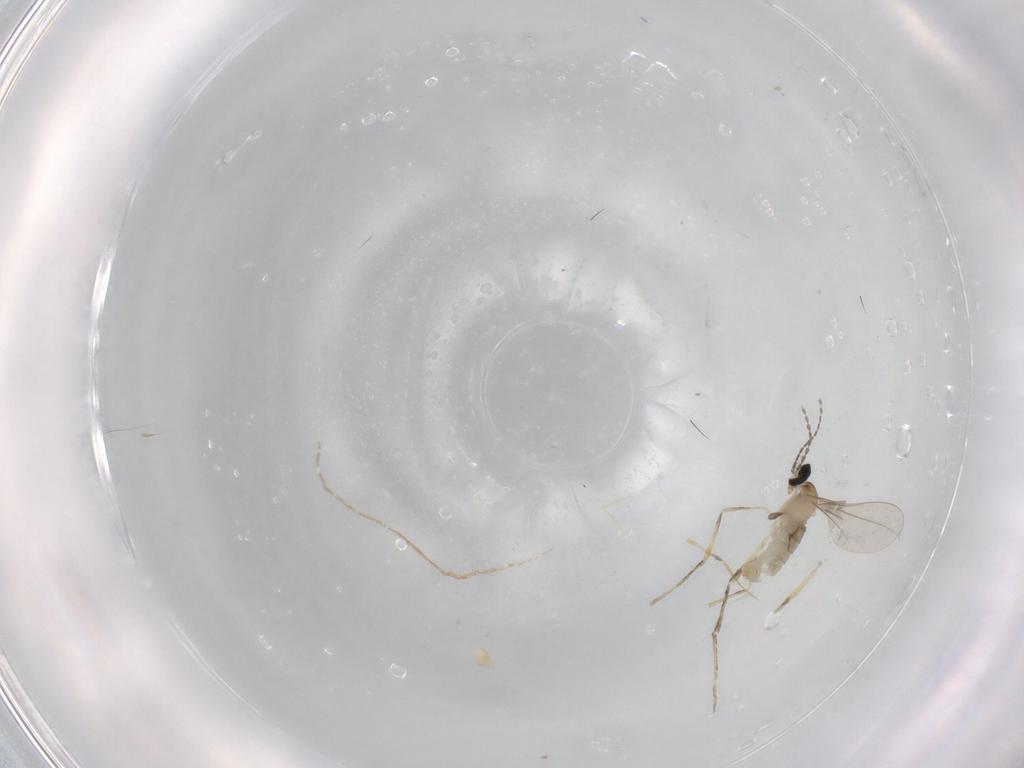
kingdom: Animalia
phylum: Arthropoda
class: Insecta
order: Diptera
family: Cecidomyiidae
